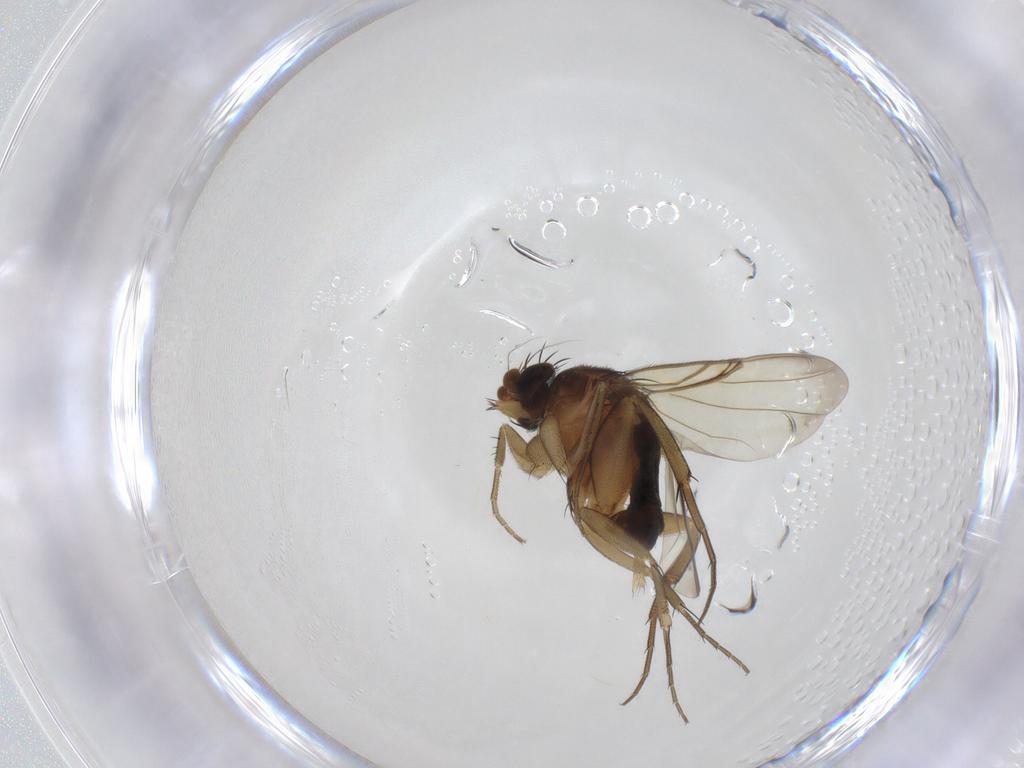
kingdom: Animalia
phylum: Arthropoda
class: Insecta
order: Diptera
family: Phoridae
